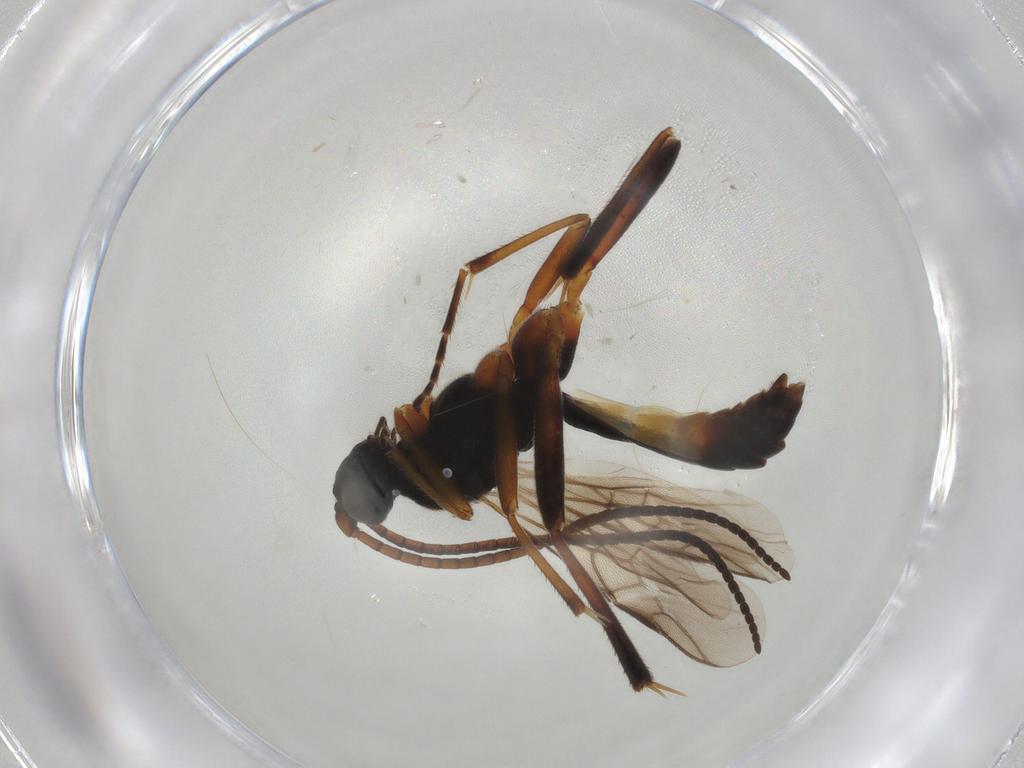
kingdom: Animalia
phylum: Arthropoda
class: Insecta
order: Hymenoptera
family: Braconidae
